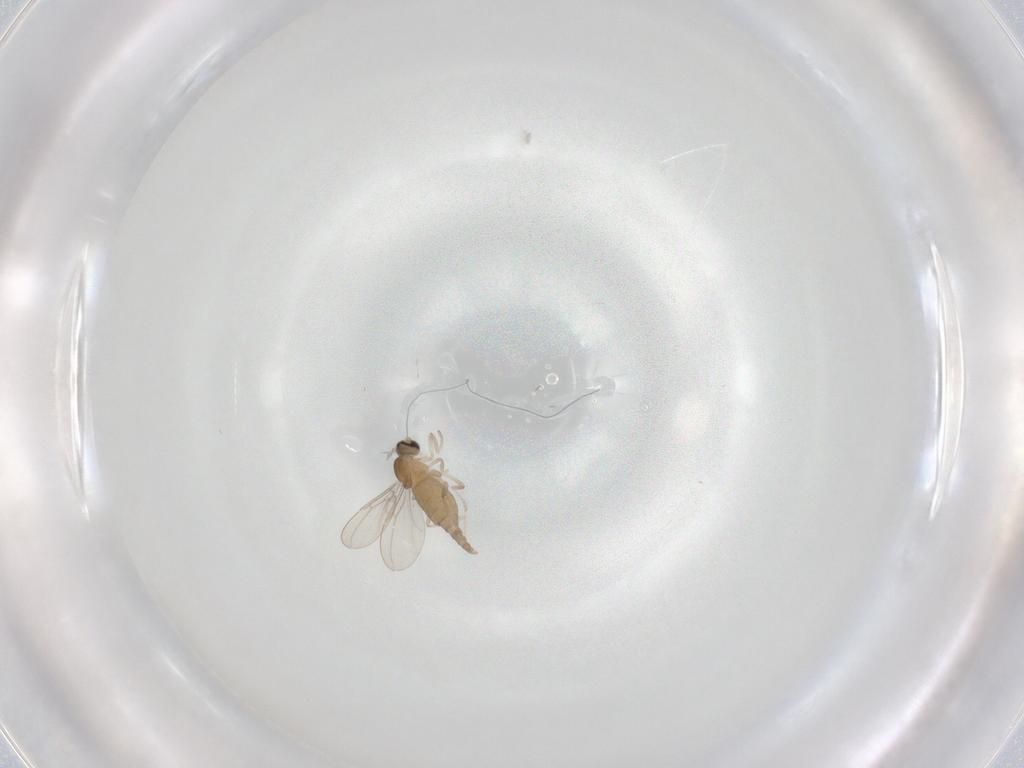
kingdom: Animalia
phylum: Arthropoda
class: Insecta
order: Diptera
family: Cecidomyiidae
